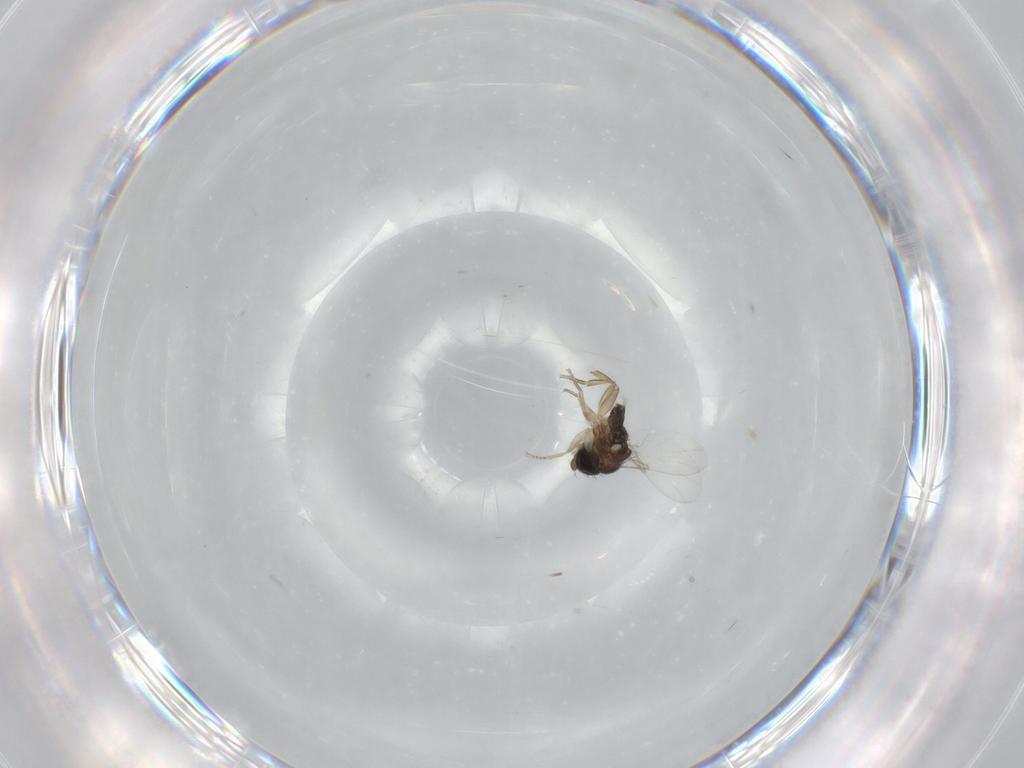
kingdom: Animalia
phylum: Arthropoda
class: Insecta
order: Diptera
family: Phoridae
